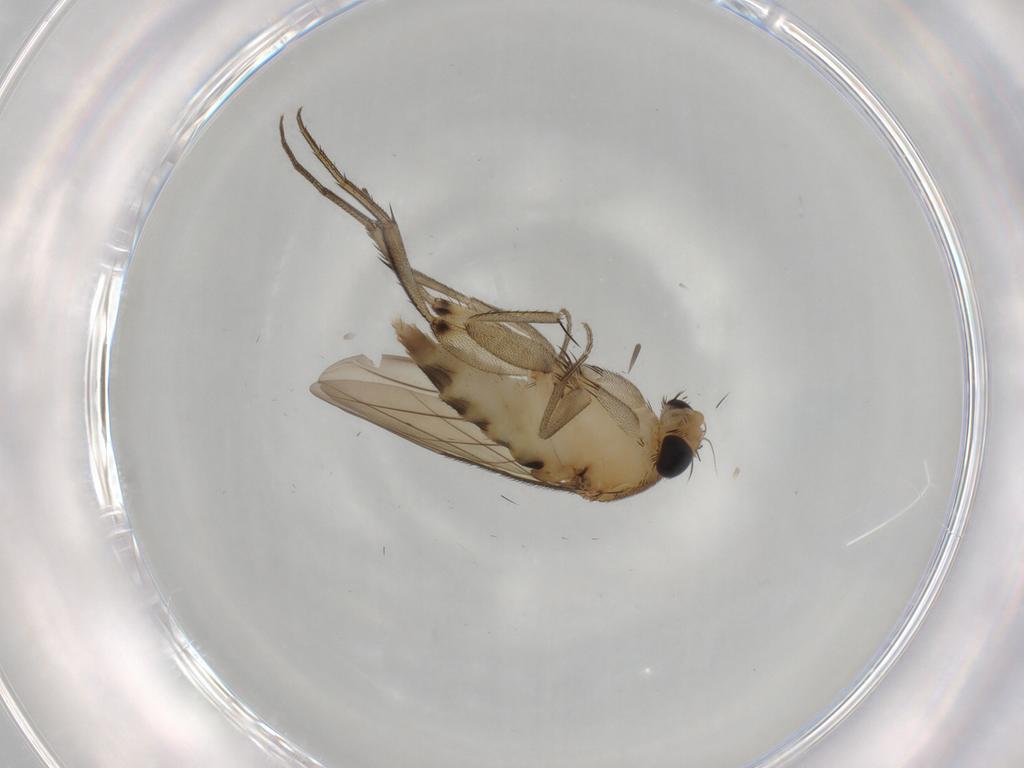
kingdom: Animalia
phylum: Arthropoda
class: Insecta
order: Diptera
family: Phoridae
